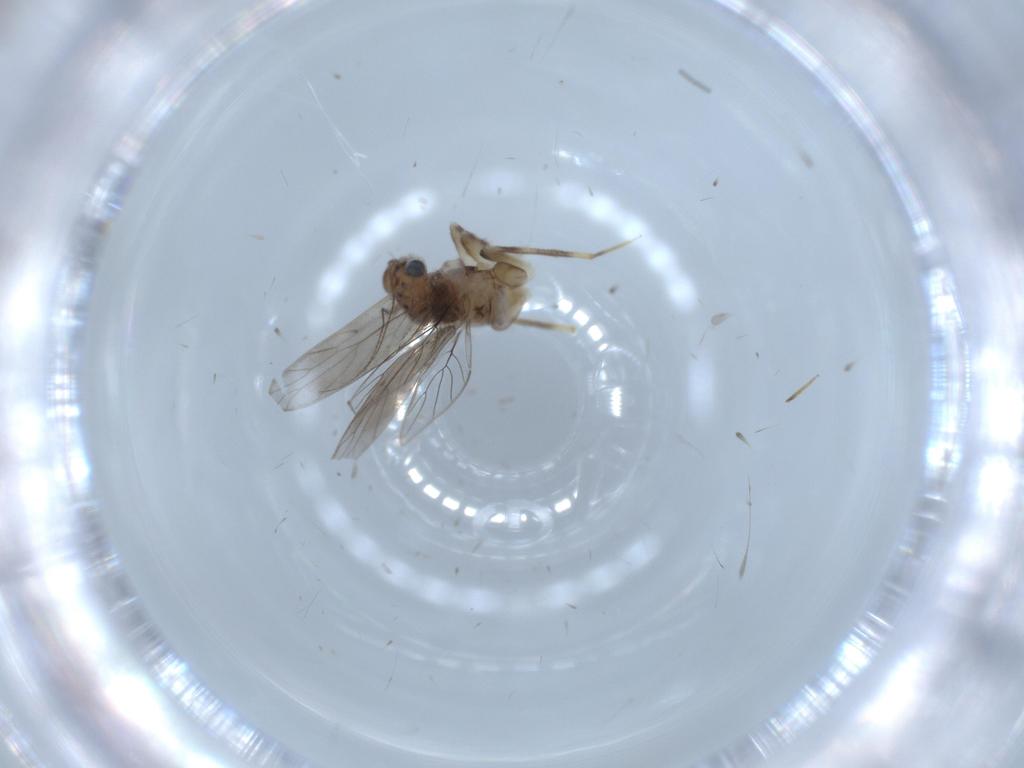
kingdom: Animalia
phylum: Arthropoda
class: Insecta
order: Psocodea
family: Lepidopsocidae
